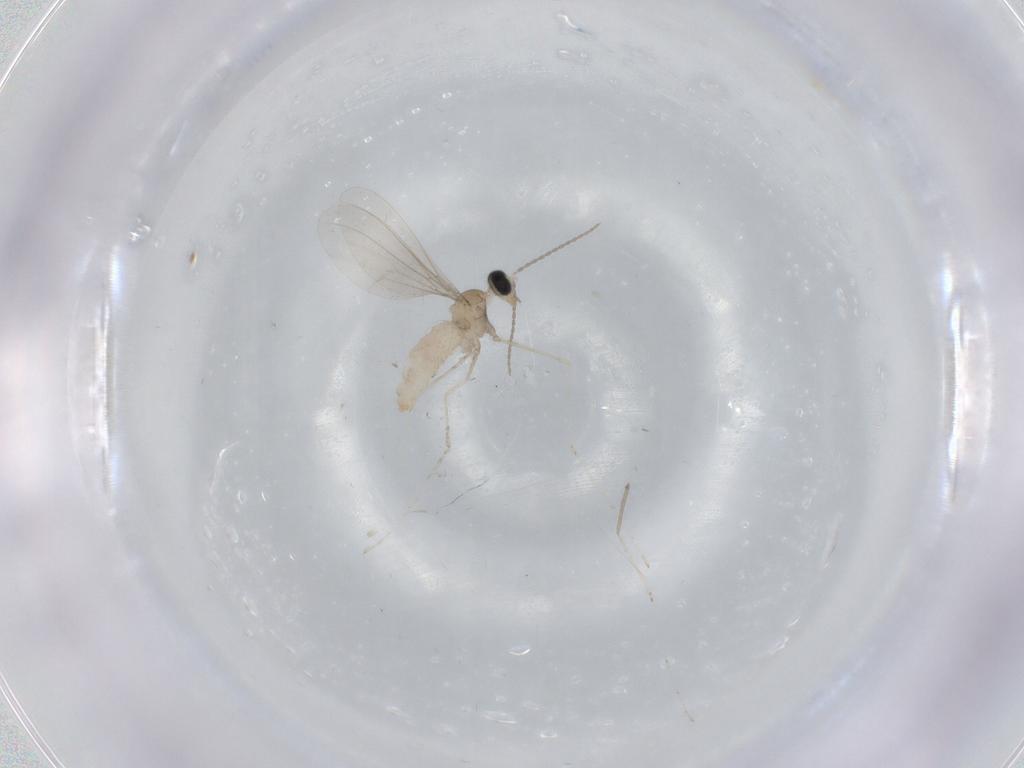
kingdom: Animalia
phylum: Arthropoda
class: Insecta
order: Diptera
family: Cecidomyiidae
